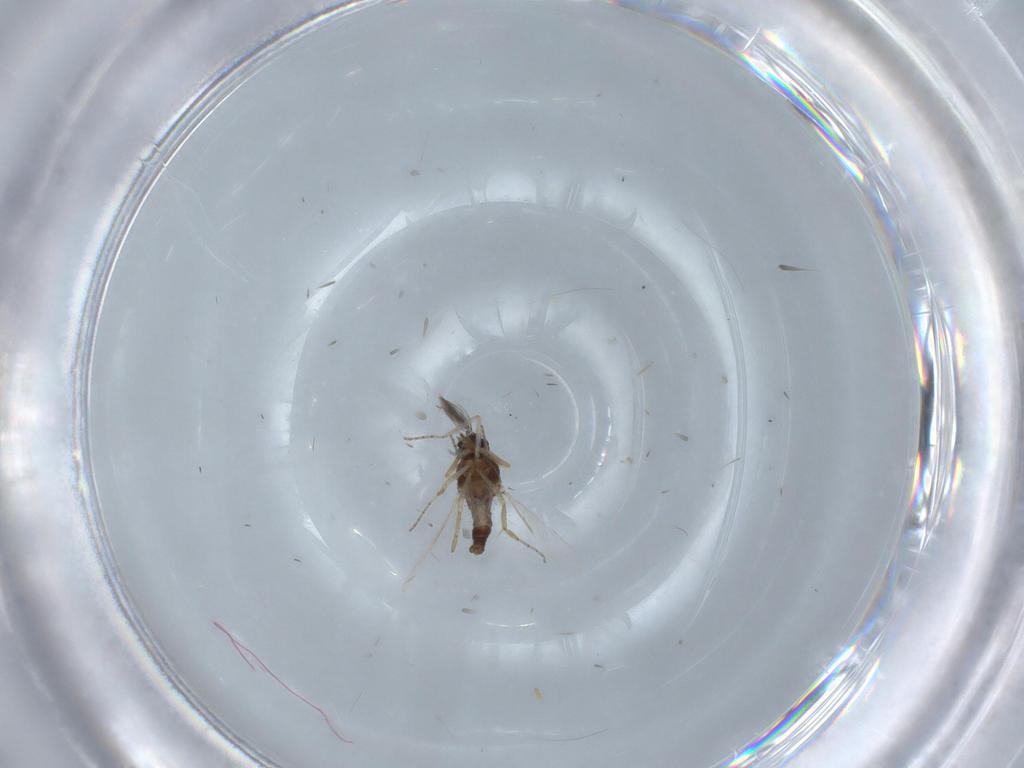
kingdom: Animalia
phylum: Arthropoda
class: Insecta
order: Diptera
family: Ceratopogonidae
